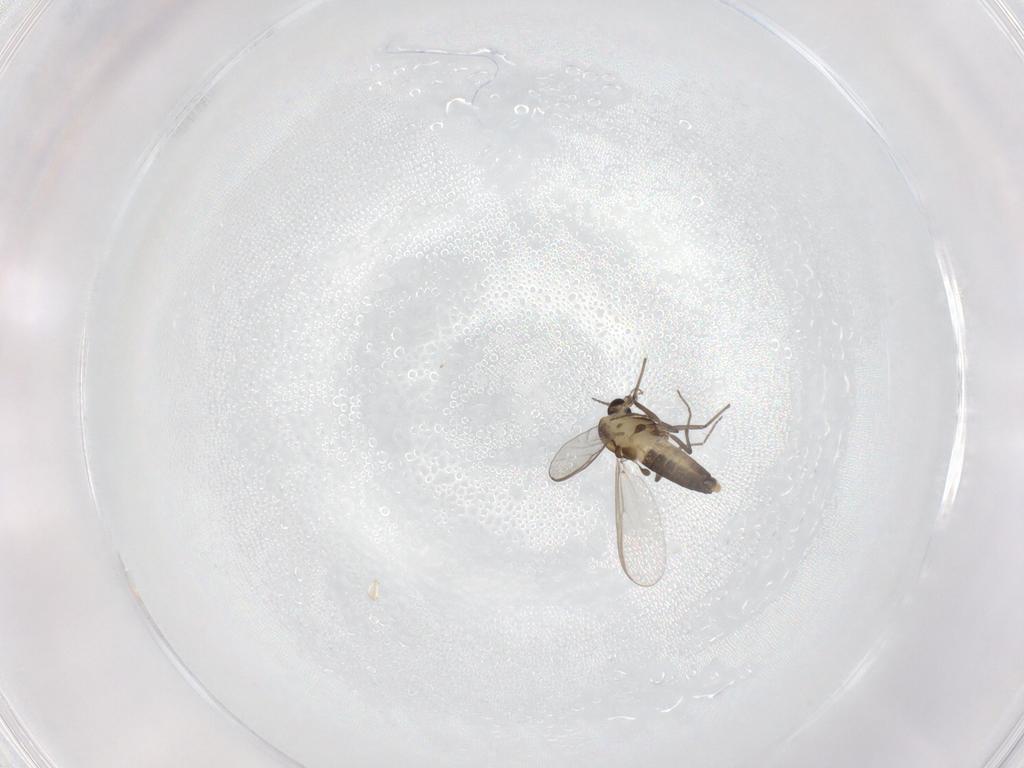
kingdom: Animalia
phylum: Arthropoda
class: Insecta
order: Diptera
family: Chironomidae
